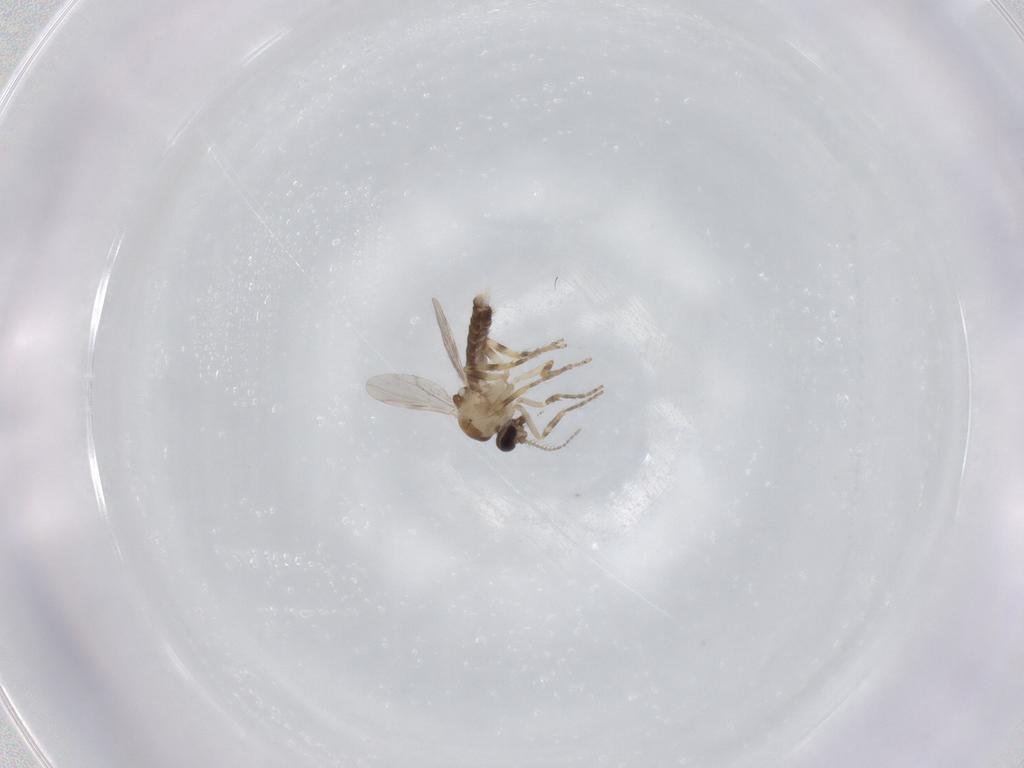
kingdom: Animalia
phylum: Arthropoda
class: Insecta
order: Diptera
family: Ceratopogonidae
